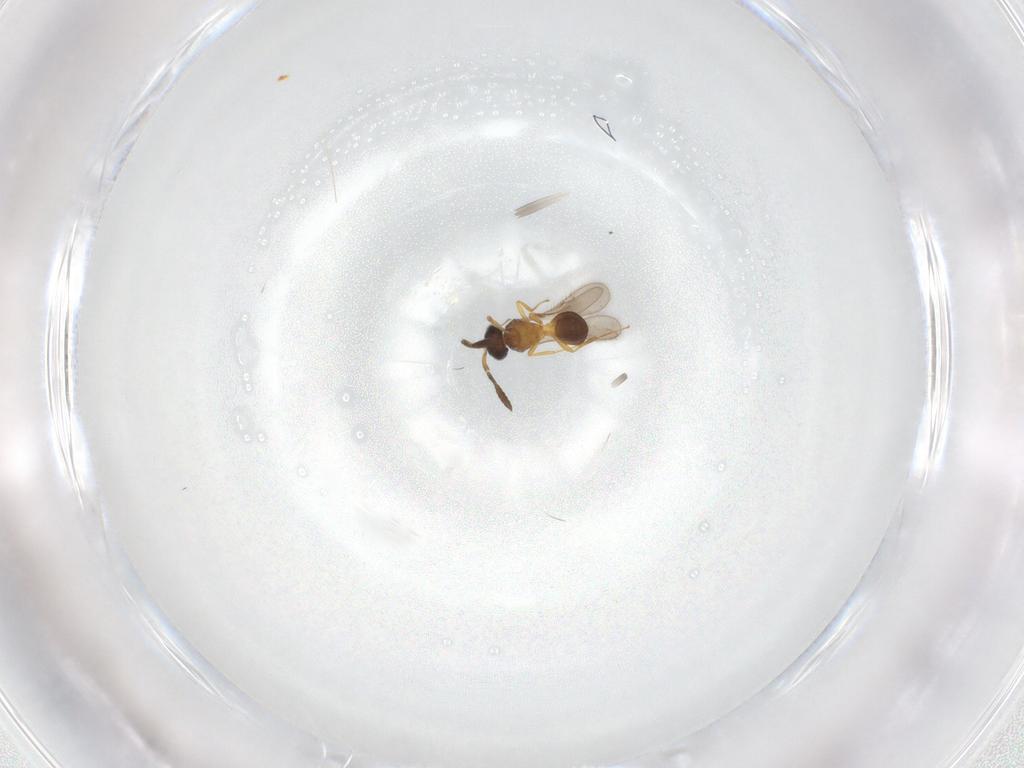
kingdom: Animalia
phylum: Arthropoda
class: Insecta
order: Hymenoptera
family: Scelionidae
